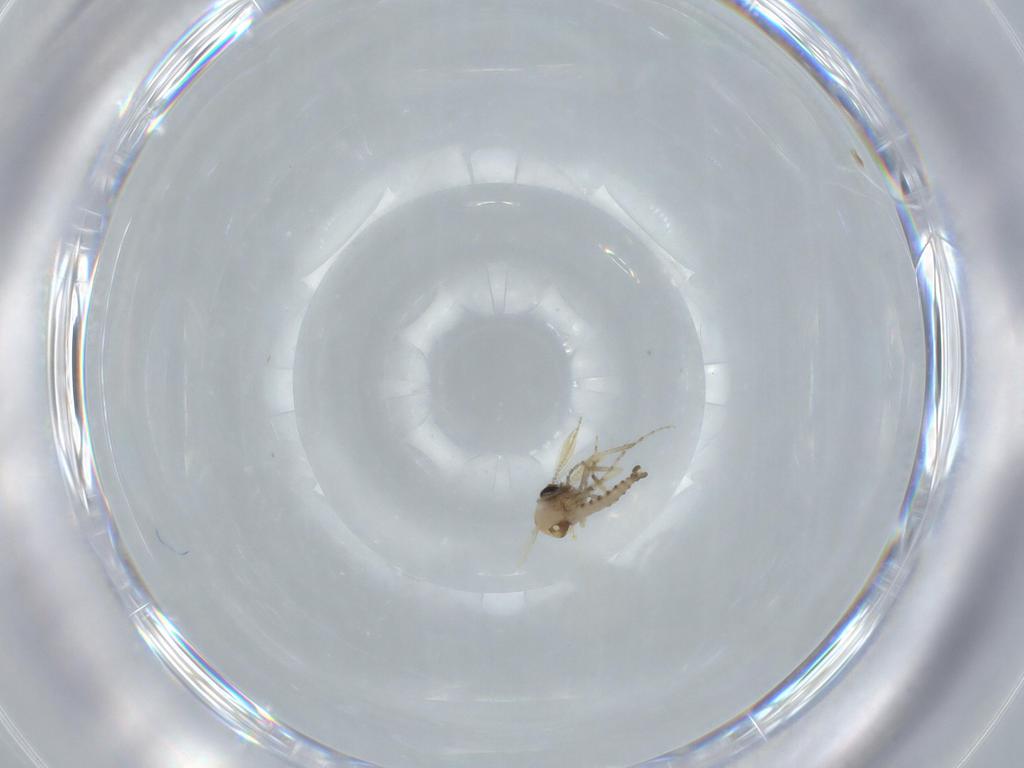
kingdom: Animalia
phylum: Arthropoda
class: Insecta
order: Diptera
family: Ceratopogonidae
